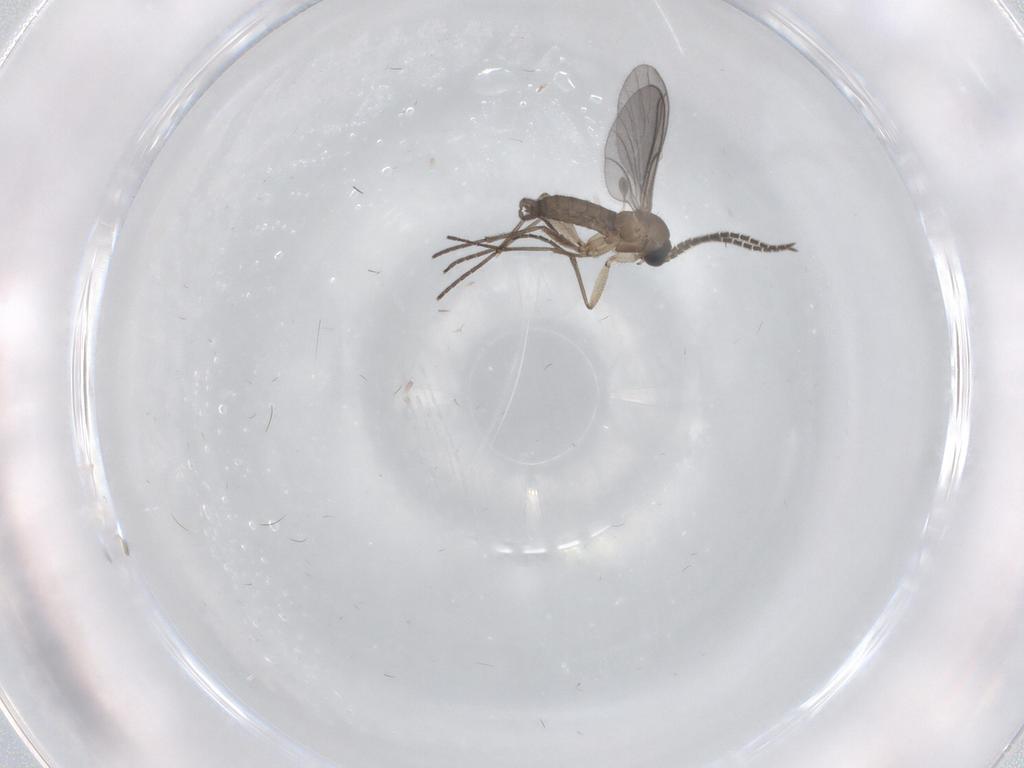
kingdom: Animalia
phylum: Arthropoda
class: Insecta
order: Diptera
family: Sciaridae
